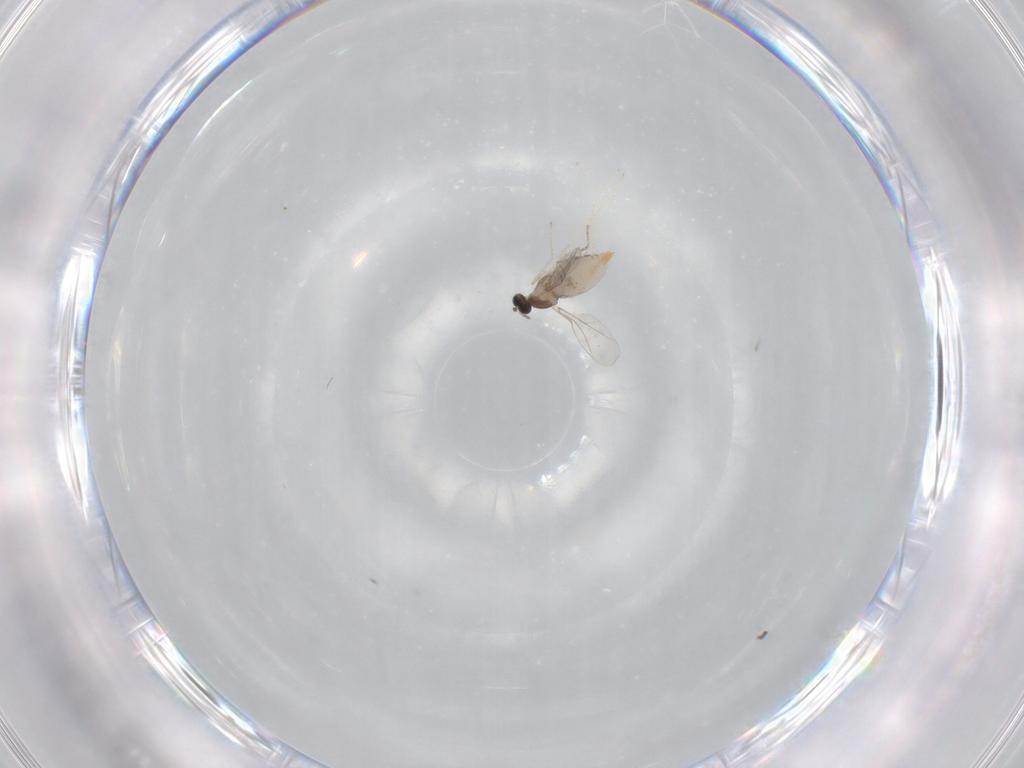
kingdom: Animalia
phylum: Arthropoda
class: Insecta
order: Diptera
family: Cecidomyiidae
